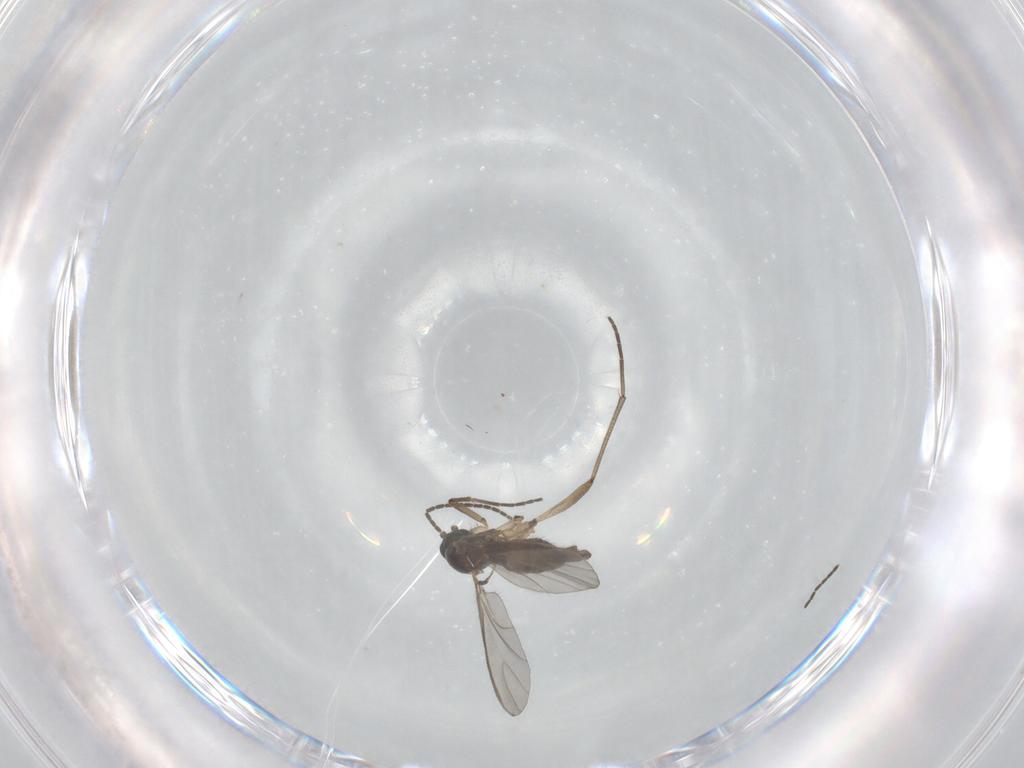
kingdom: Animalia
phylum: Arthropoda
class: Insecta
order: Diptera
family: Sciaridae
